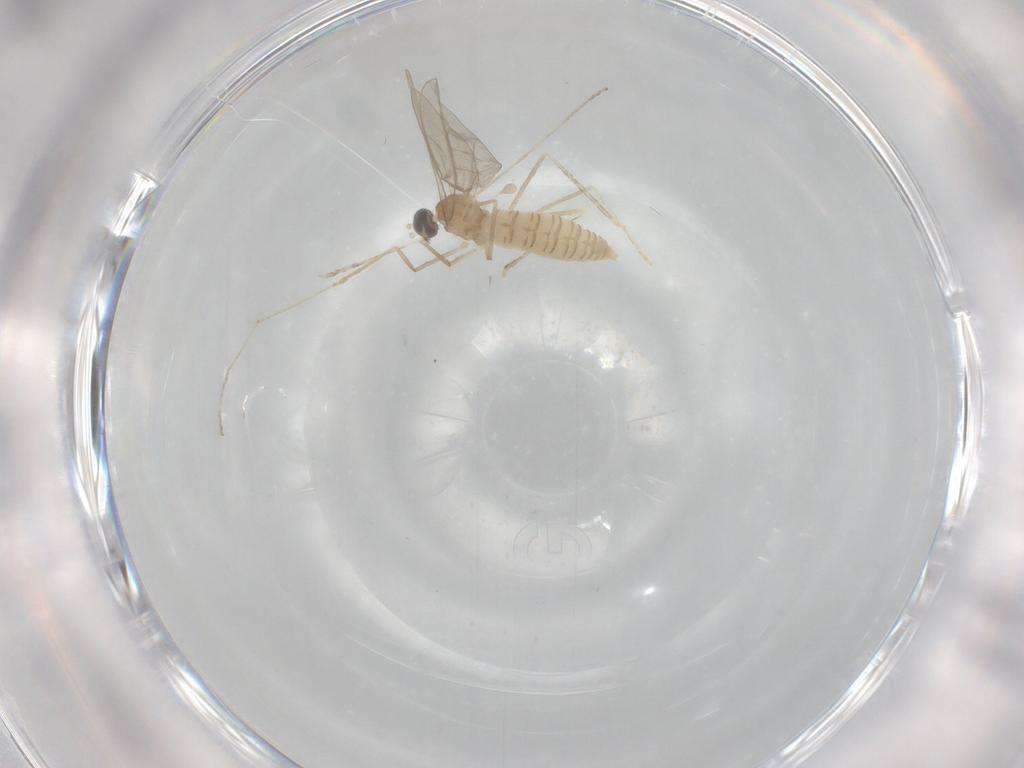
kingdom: Animalia
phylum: Arthropoda
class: Insecta
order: Diptera
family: Cecidomyiidae
